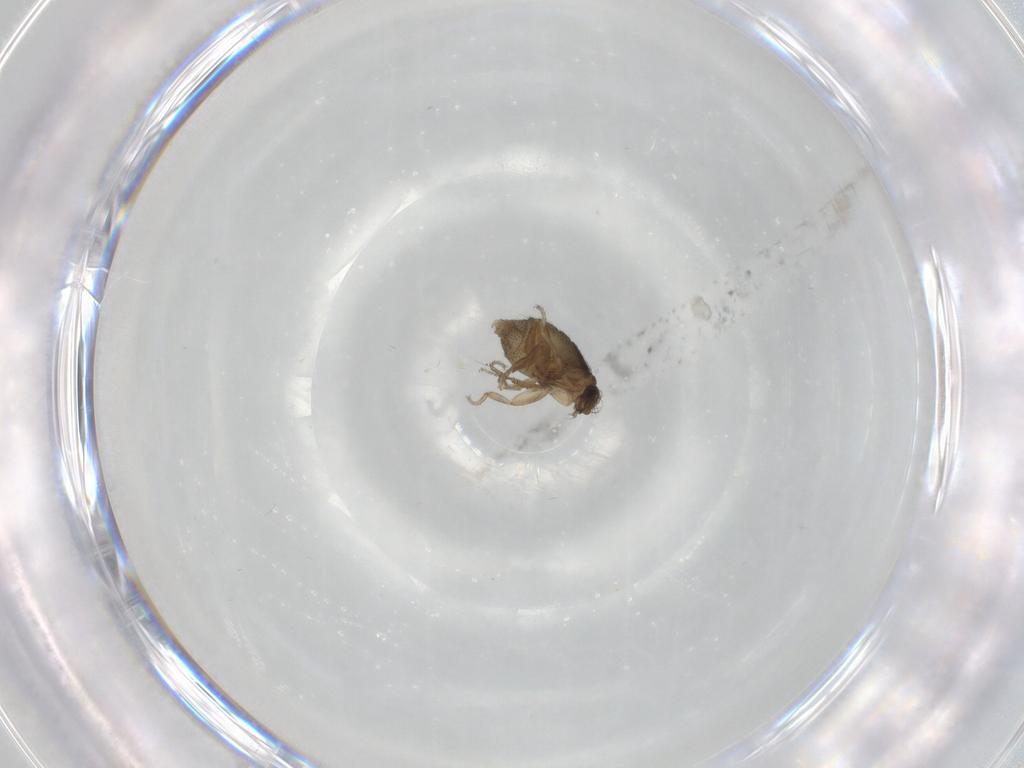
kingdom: Animalia
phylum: Arthropoda
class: Insecta
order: Diptera
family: Phoridae
